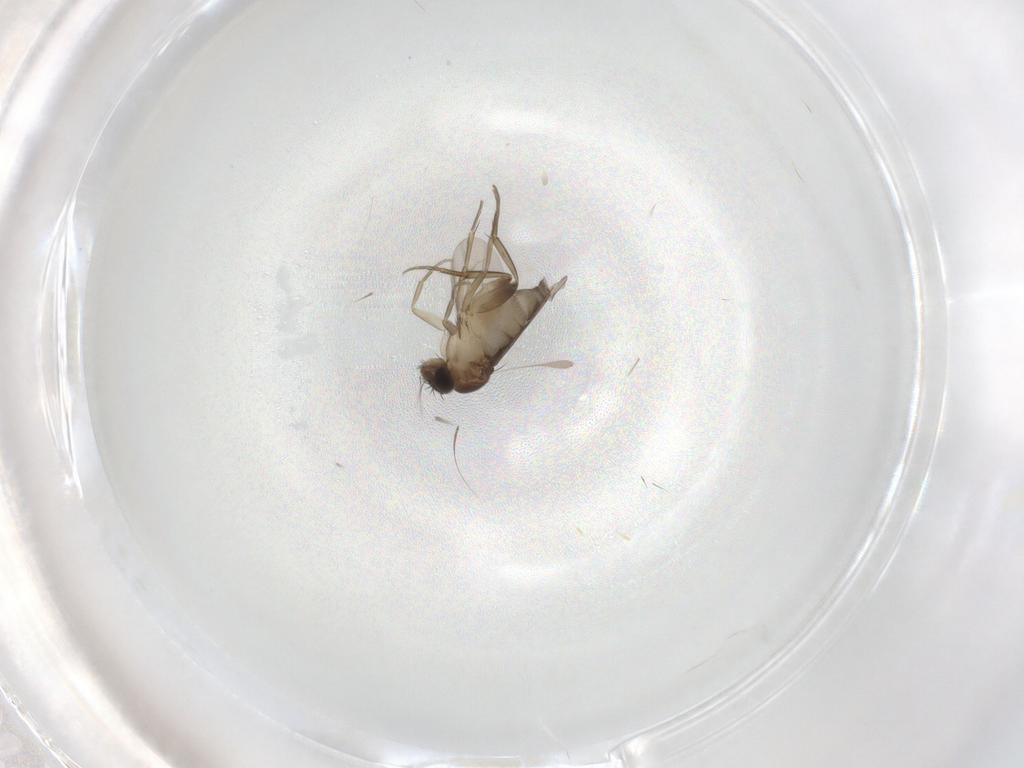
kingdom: Animalia
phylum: Arthropoda
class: Insecta
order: Diptera
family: Phoridae
